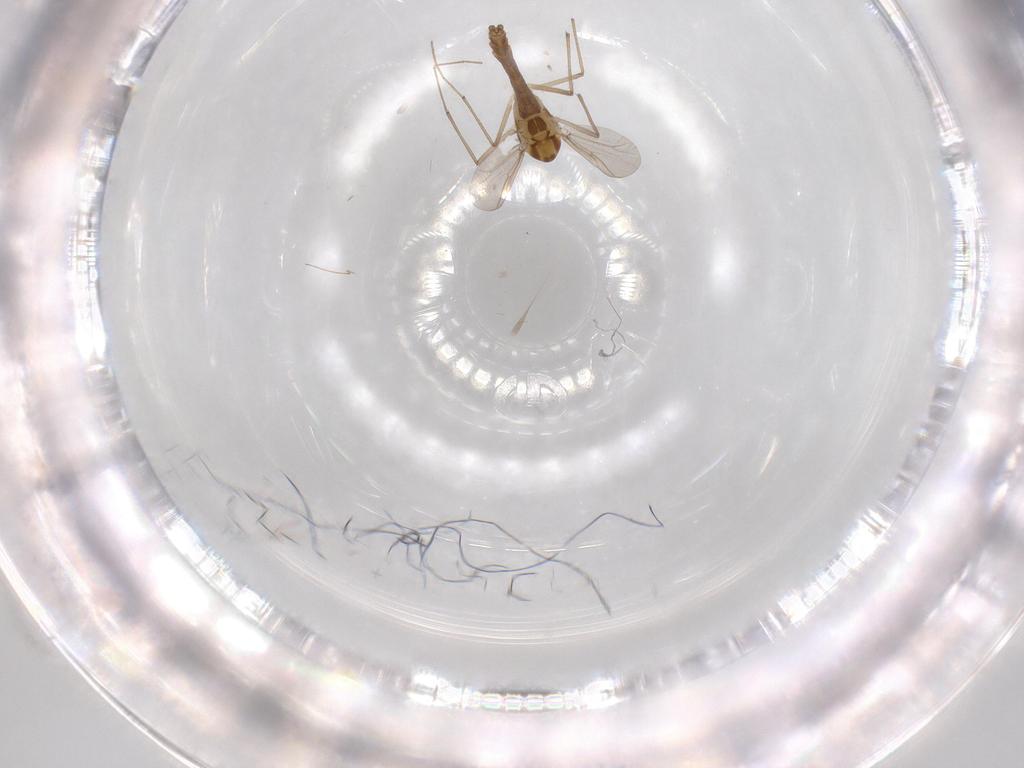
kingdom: Animalia
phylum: Arthropoda
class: Insecta
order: Diptera
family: Chironomidae
